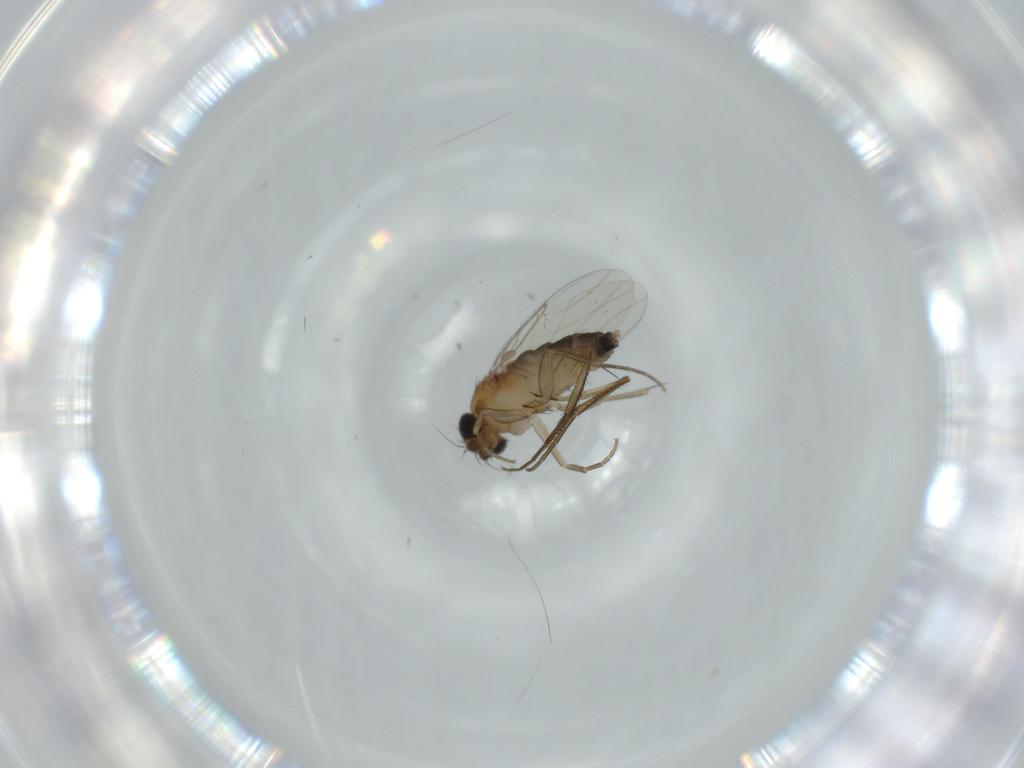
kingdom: Animalia
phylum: Arthropoda
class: Insecta
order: Diptera
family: Phoridae
